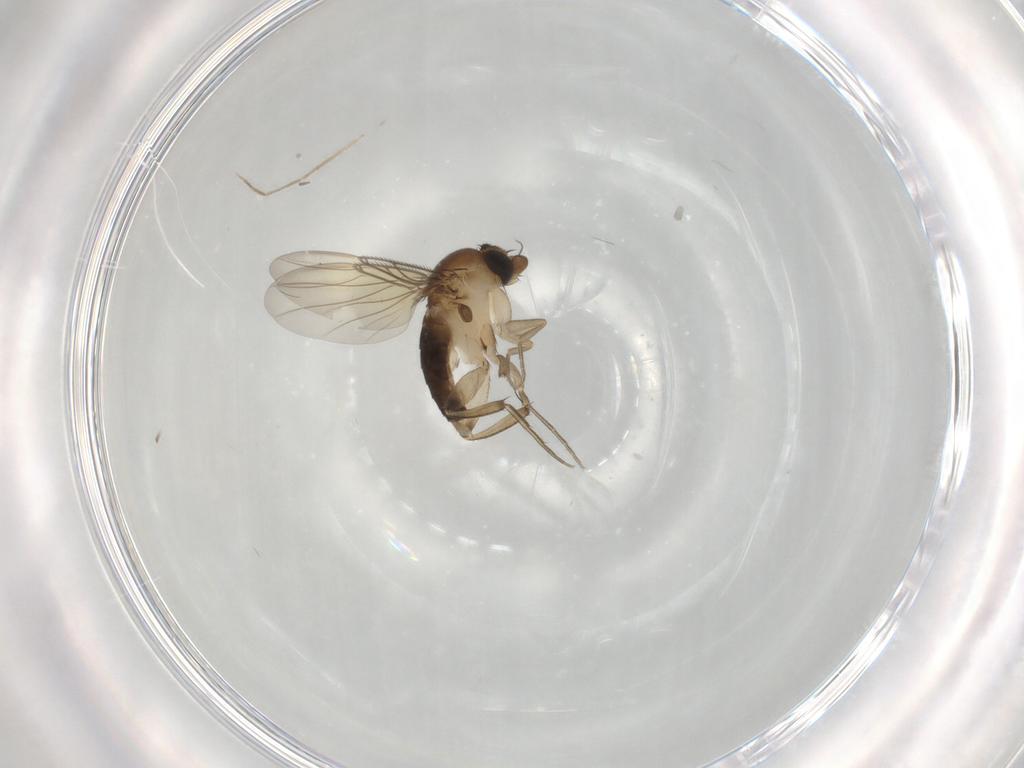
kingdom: Animalia
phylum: Arthropoda
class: Insecta
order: Diptera
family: Phoridae
